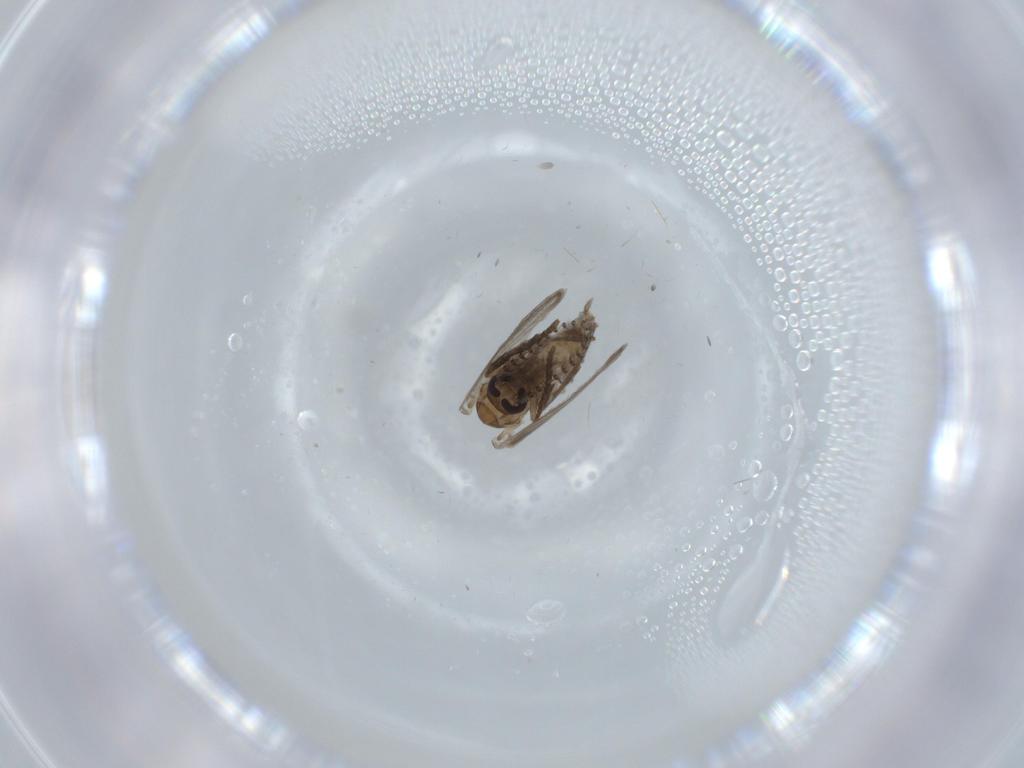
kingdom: Animalia
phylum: Arthropoda
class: Insecta
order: Diptera
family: Psychodidae
